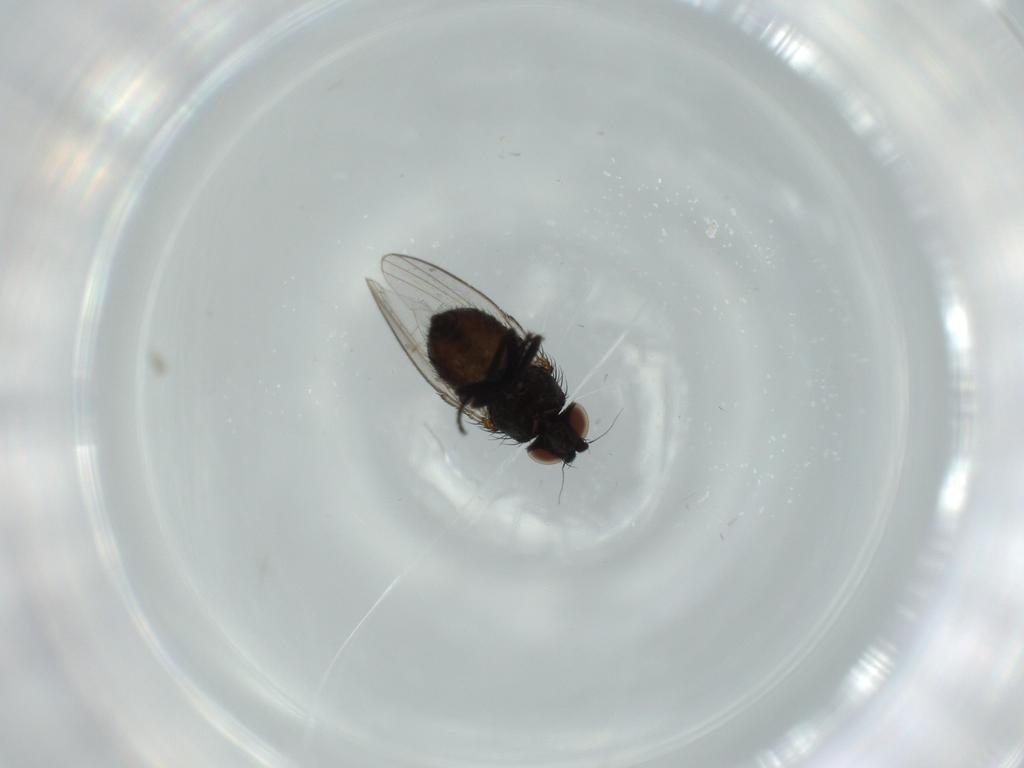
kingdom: Animalia
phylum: Arthropoda
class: Insecta
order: Diptera
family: Milichiidae
